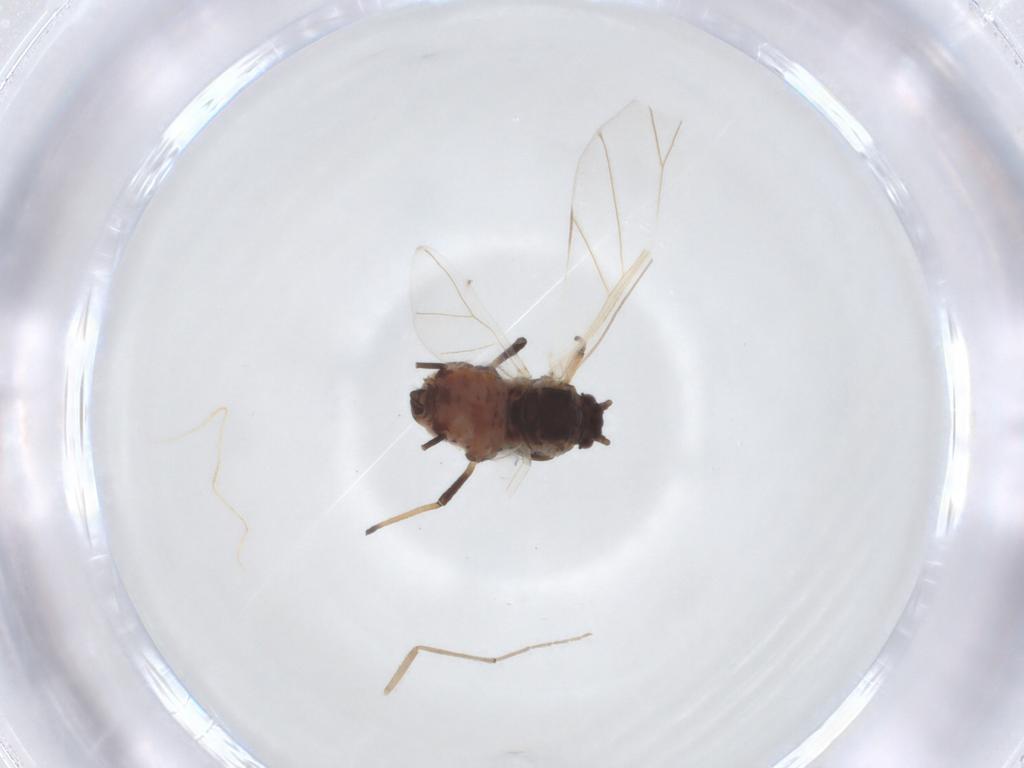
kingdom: Animalia
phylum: Arthropoda
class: Insecta
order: Hemiptera
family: Aphididae
